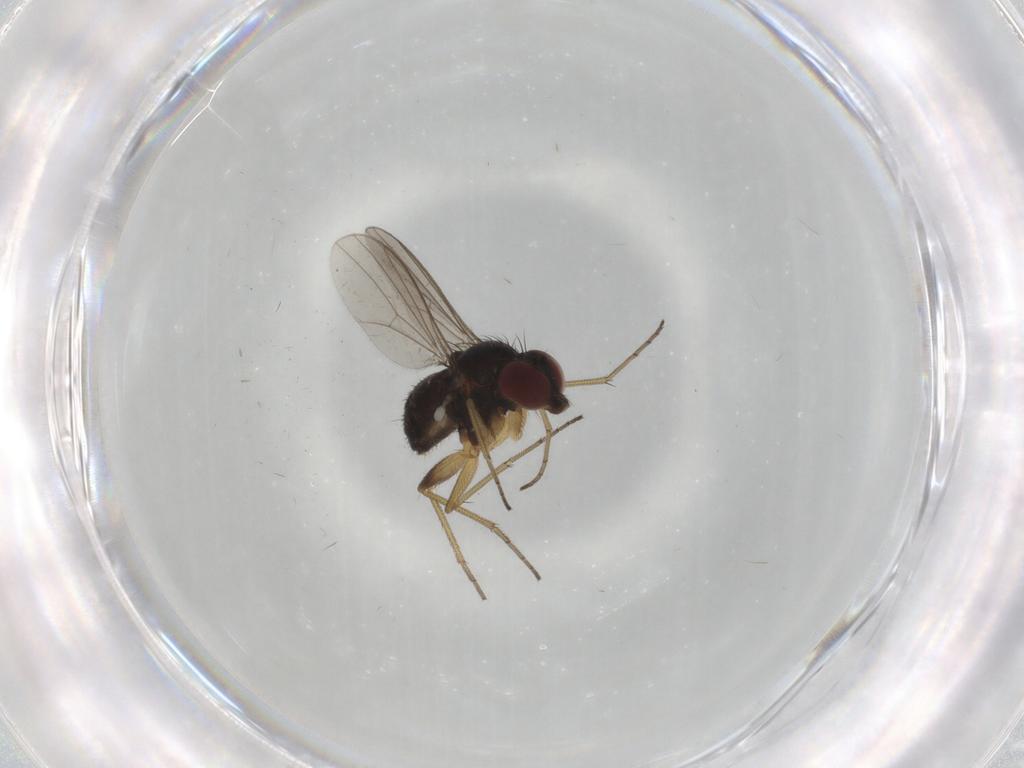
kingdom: Animalia
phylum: Arthropoda
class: Insecta
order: Diptera
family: Dolichopodidae
